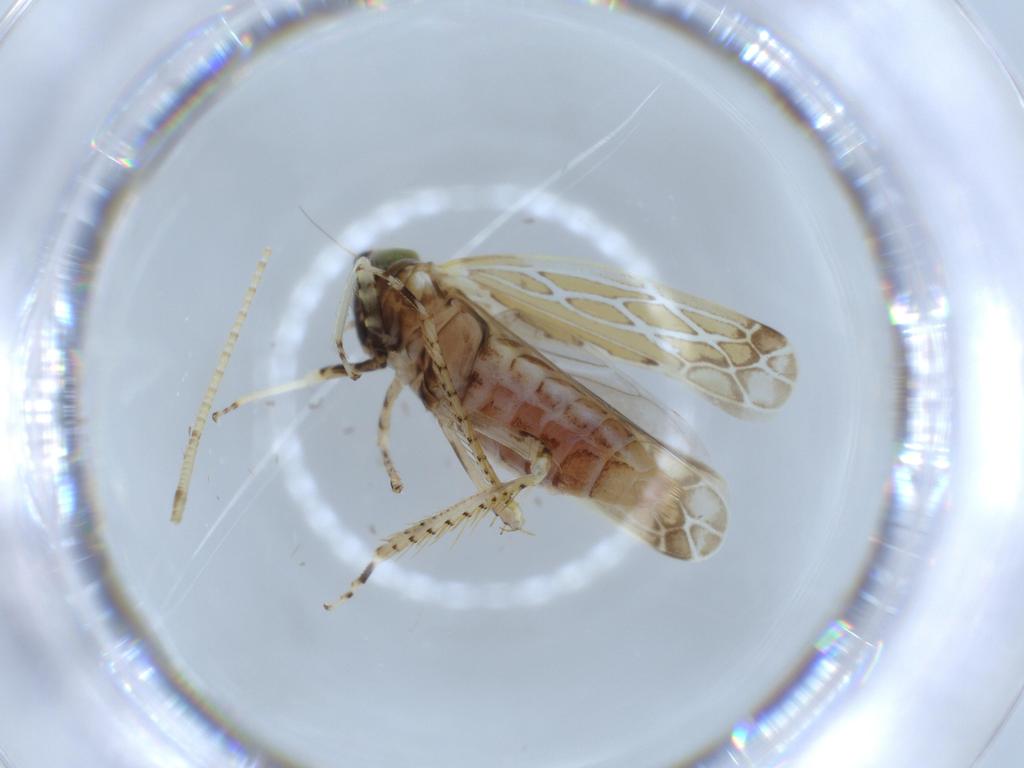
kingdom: Animalia
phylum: Arthropoda
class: Insecta
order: Hemiptera
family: Cicadellidae
